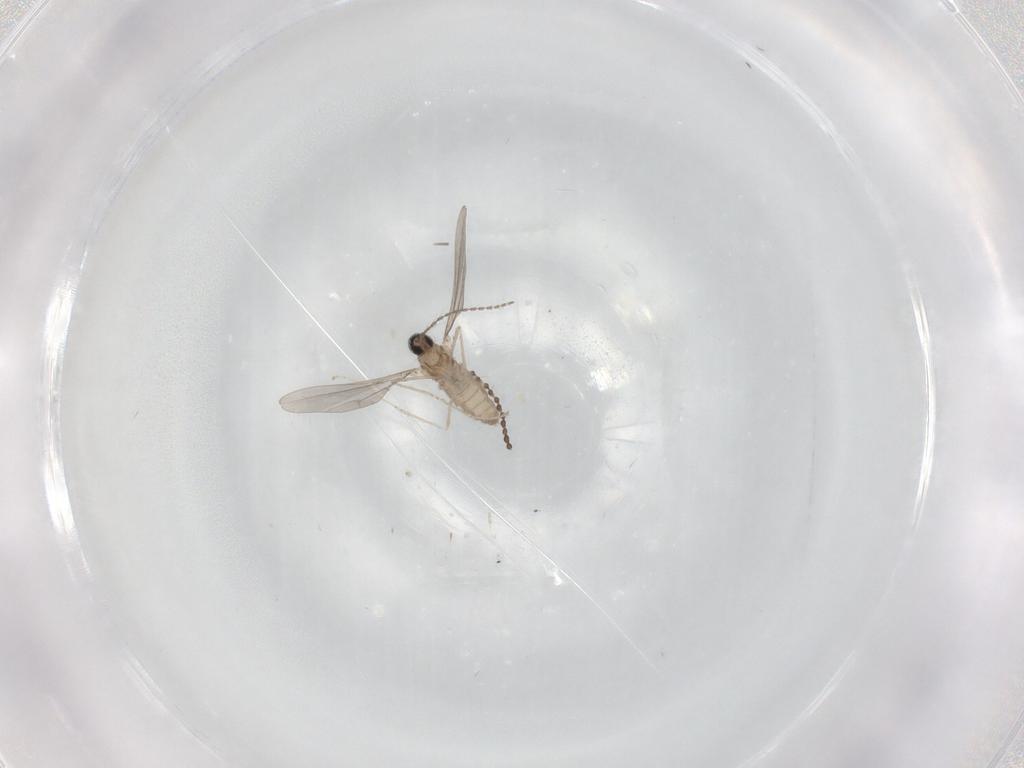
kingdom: Animalia
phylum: Arthropoda
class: Insecta
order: Diptera
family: Cecidomyiidae
